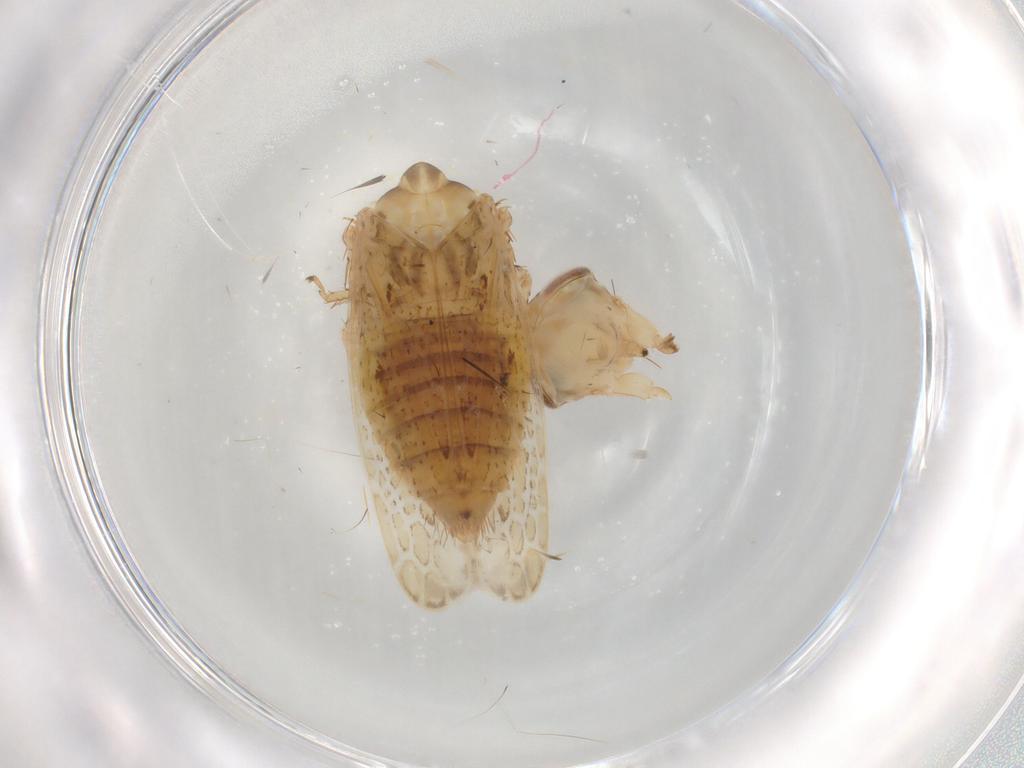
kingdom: Animalia
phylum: Arthropoda
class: Insecta
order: Hemiptera
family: Cicadellidae
